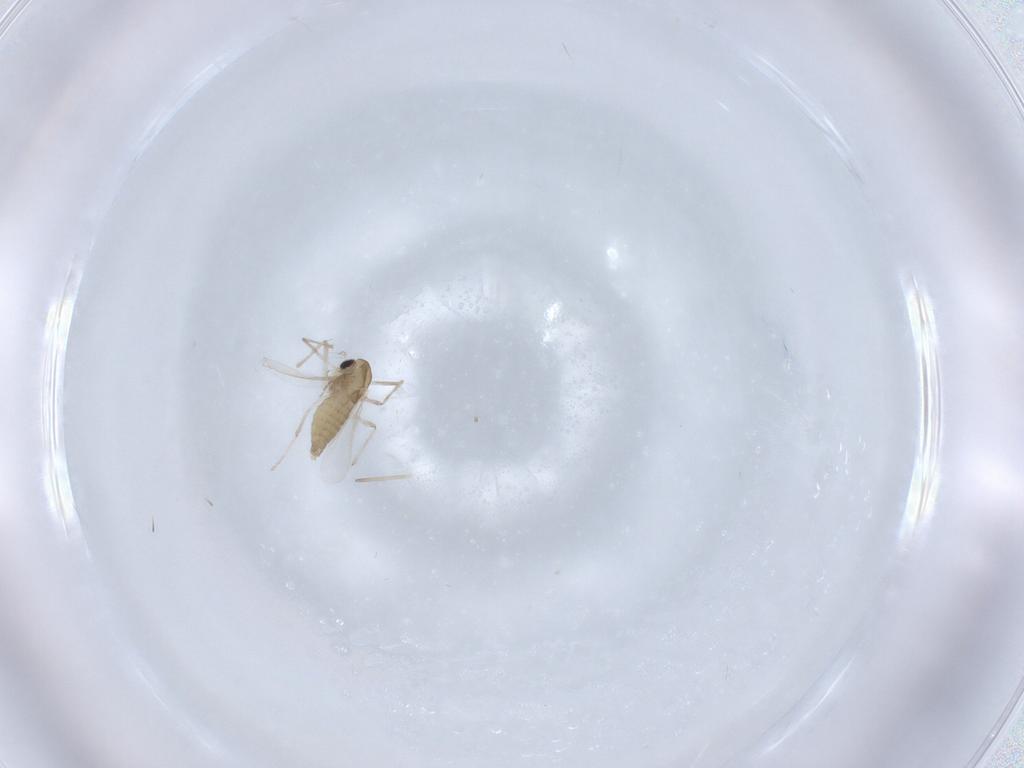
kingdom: Animalia
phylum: Arthropoda
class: Insecta
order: Diptera
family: Chironomidae
